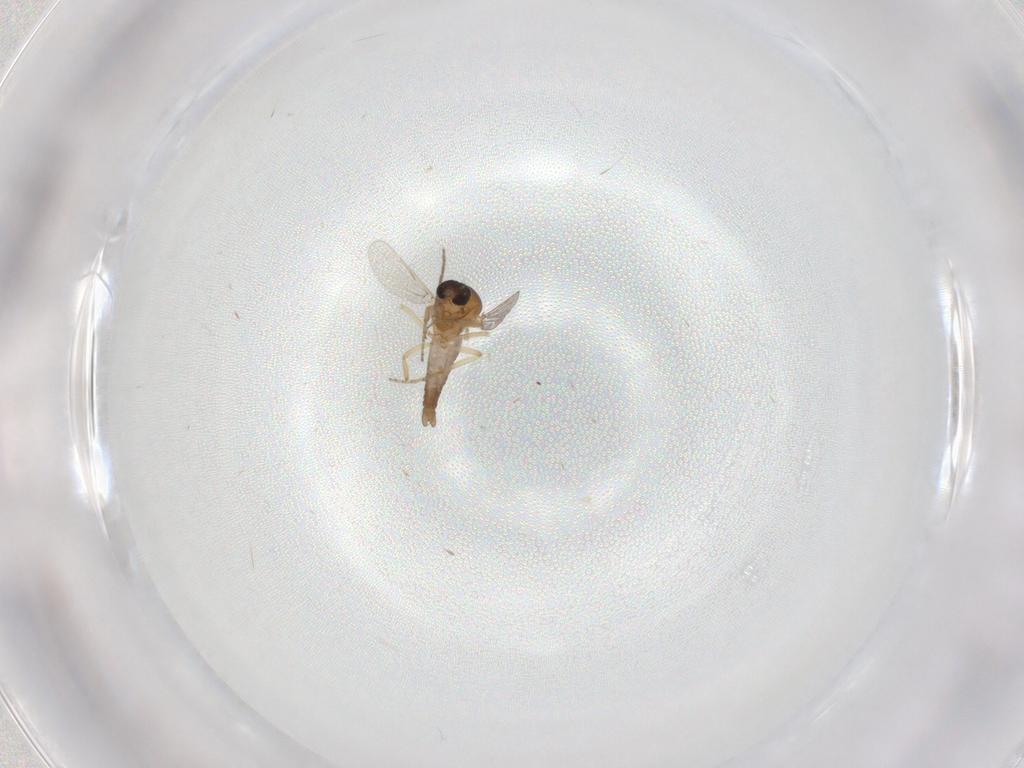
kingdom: Animalia
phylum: Arthropoda
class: Insecta
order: Diptera
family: Chironomidae
